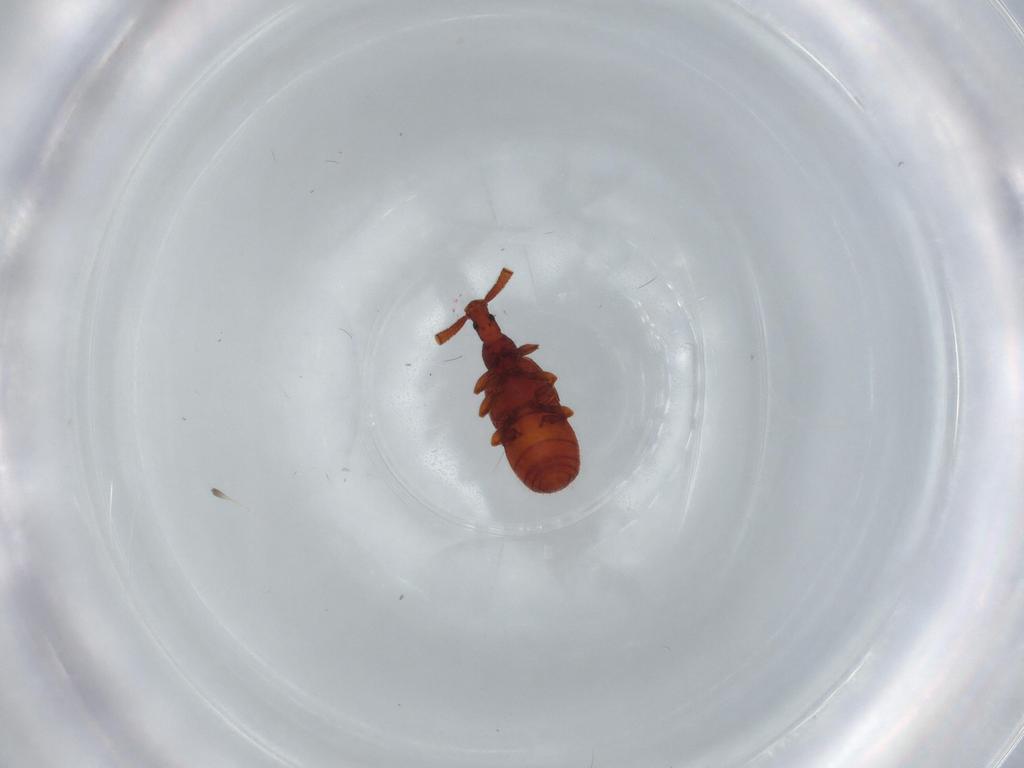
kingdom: Animalia
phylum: Arthropoda
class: Insecta
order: Coleoptera
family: Staphylinidae
